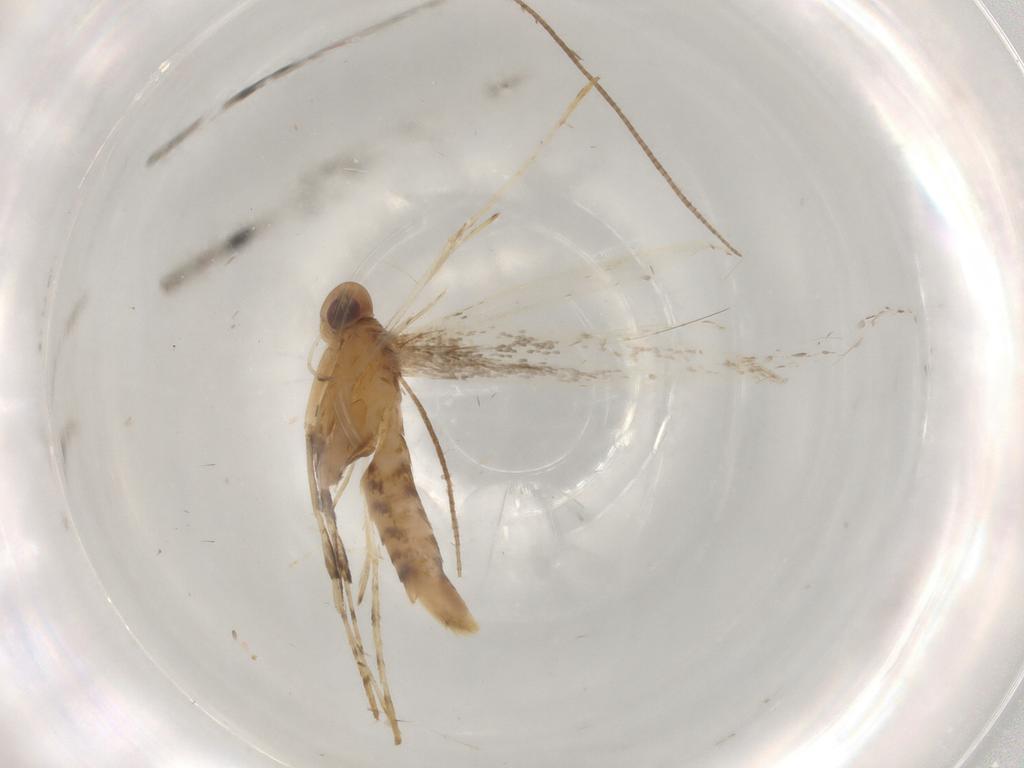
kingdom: Animalia
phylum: Arthropoda
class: Insecta
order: Lepidoptera
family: Gracillariidae
